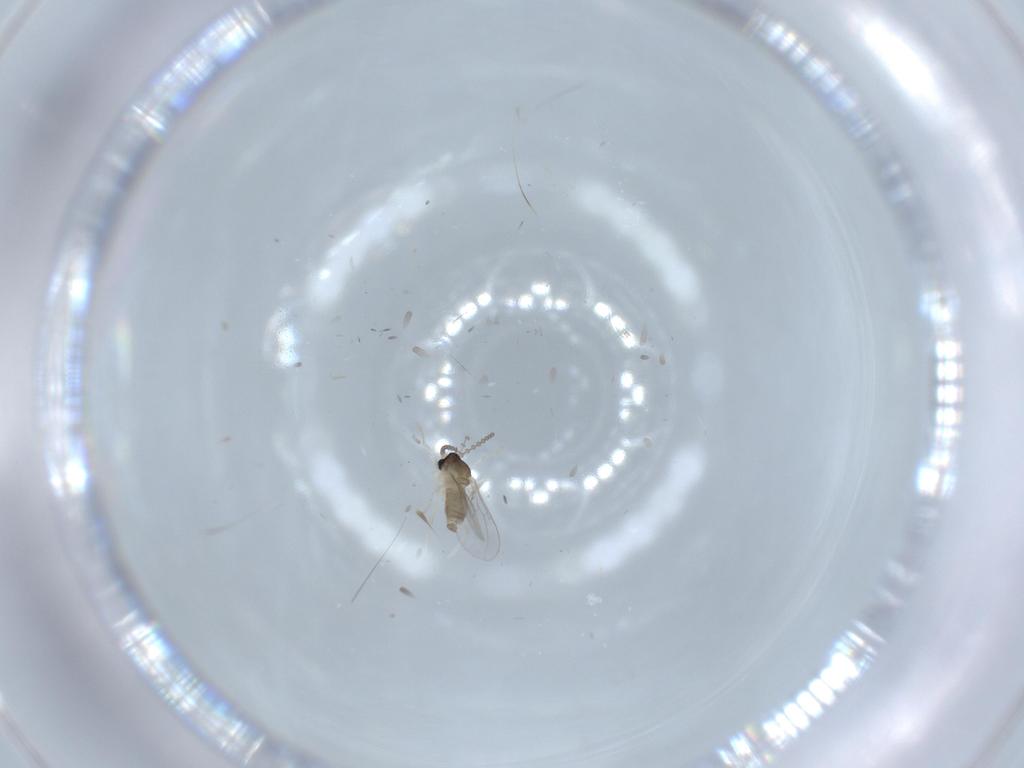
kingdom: Animalia
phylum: Arthropoda
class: Insecta
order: Diptera
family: Cecidomyiidae
